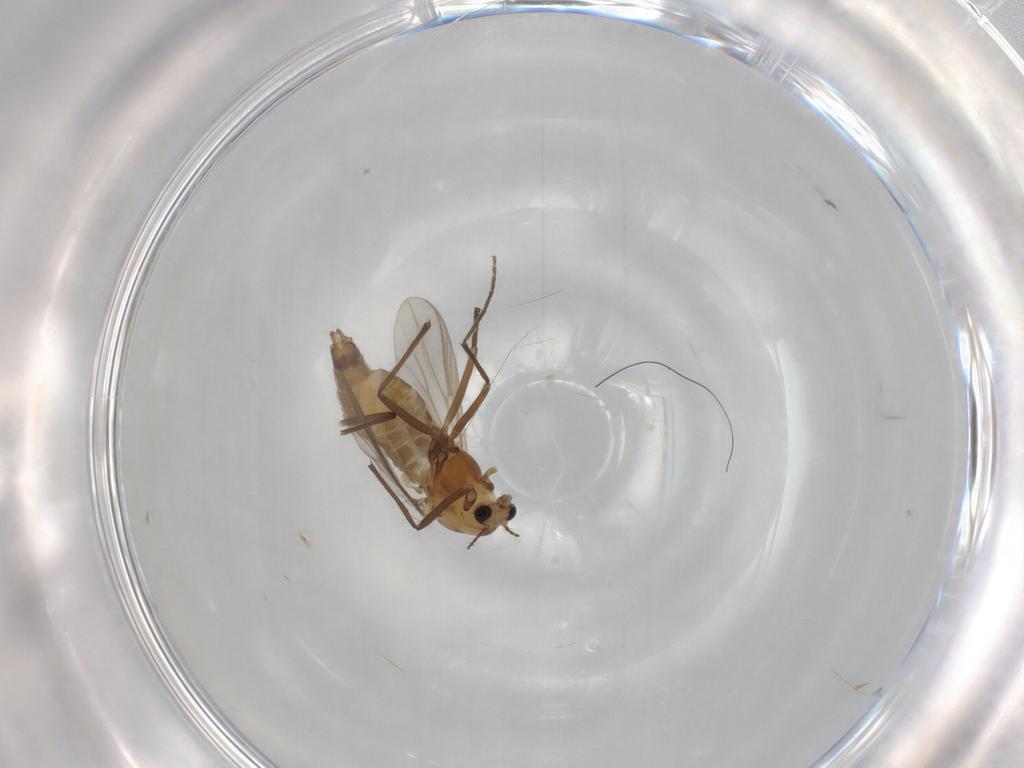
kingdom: Animalia
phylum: Arthropoda
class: Insecta
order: Diptera
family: Chironomidae
